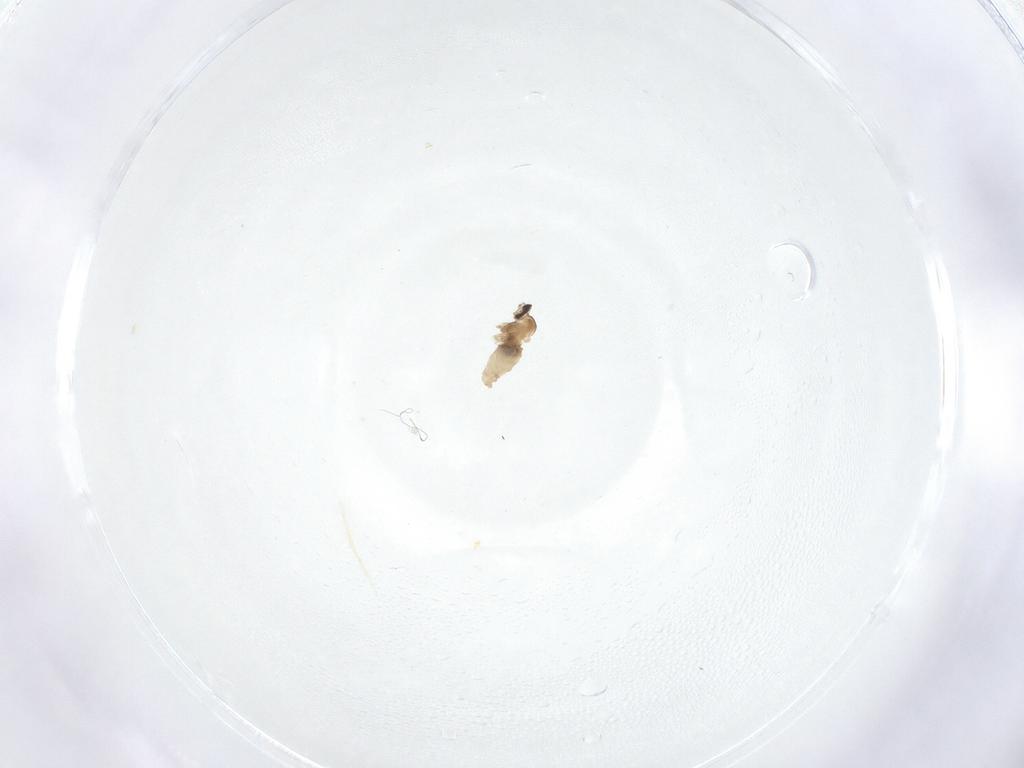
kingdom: Animalia
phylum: Arthropoda
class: Insecta
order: Diptera
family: Cecidomyiidae
